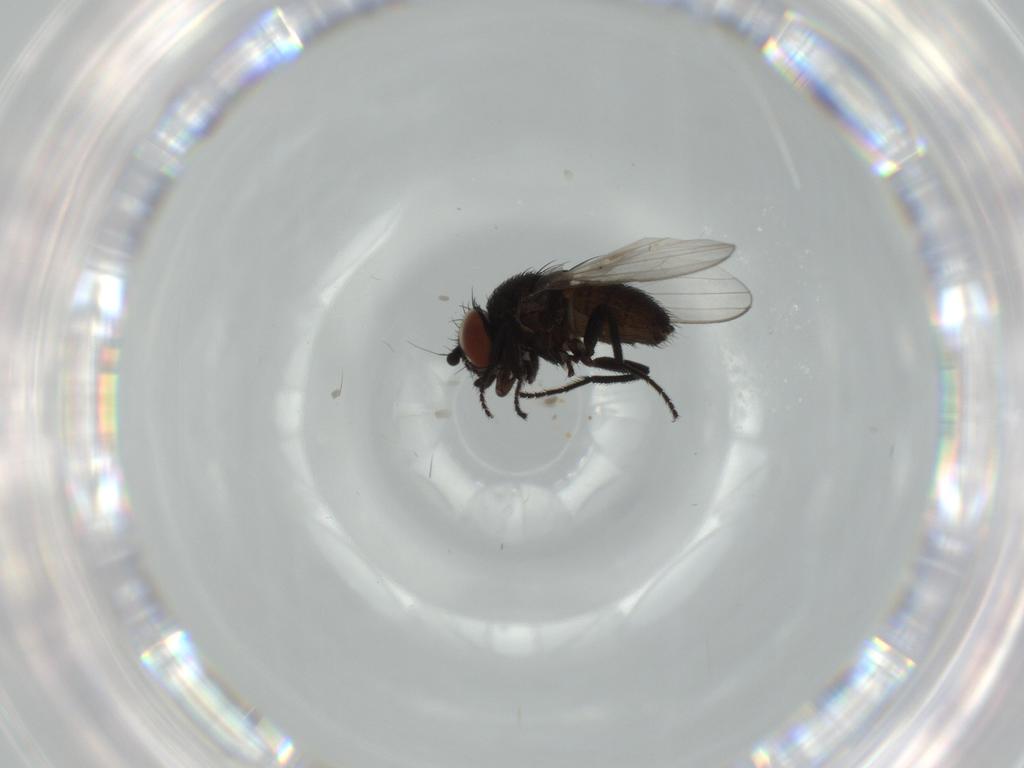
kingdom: Animalia
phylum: Arthropoda
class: Insecta
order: Diptera
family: Milichiidae
